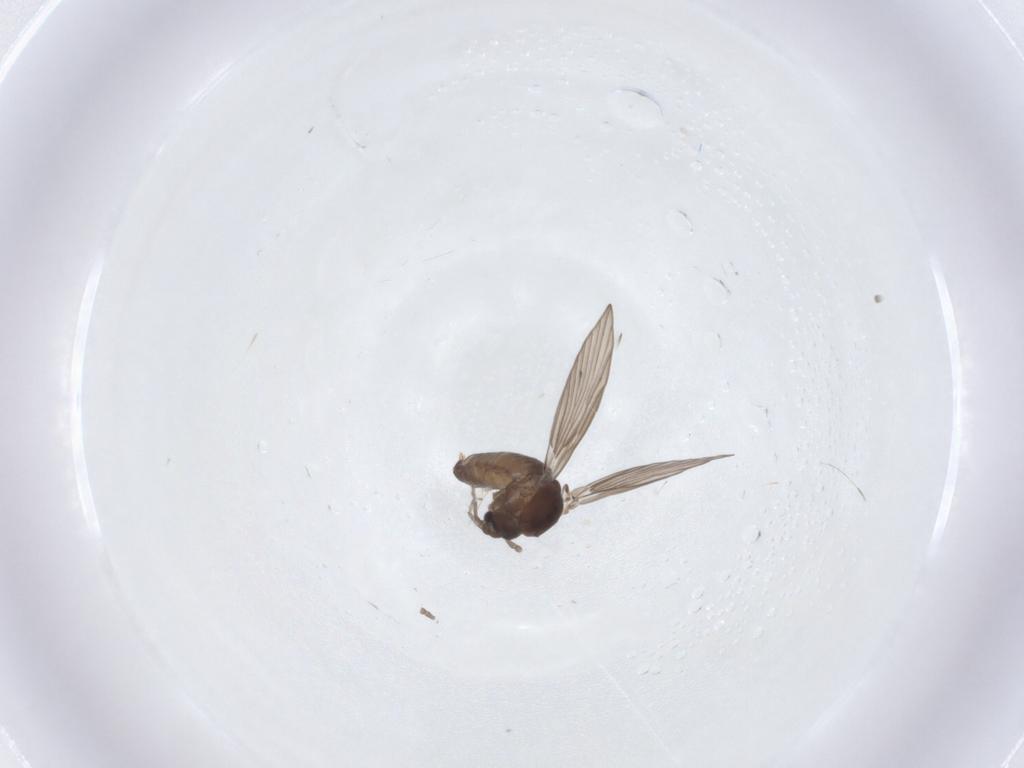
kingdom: Animalia
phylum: Arthropoda
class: Insecta
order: Diptera
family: Psychodidae
